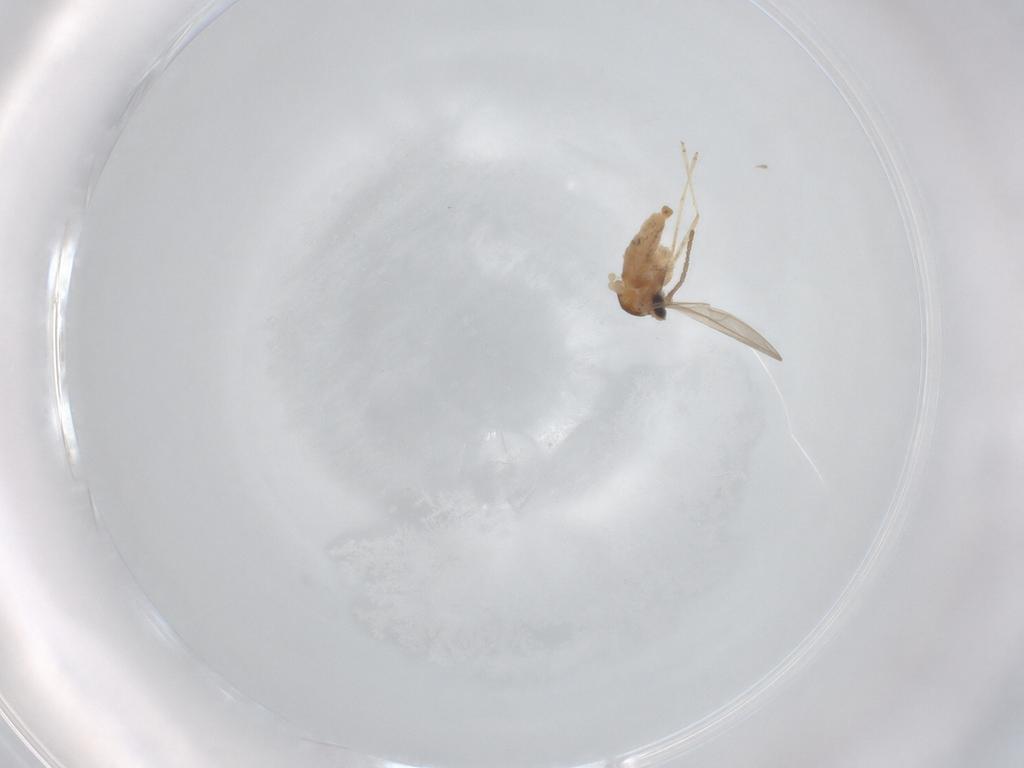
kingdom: Animalia
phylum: Arthropoda
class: Insecta
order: Diptera
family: Cecidomyiidae
